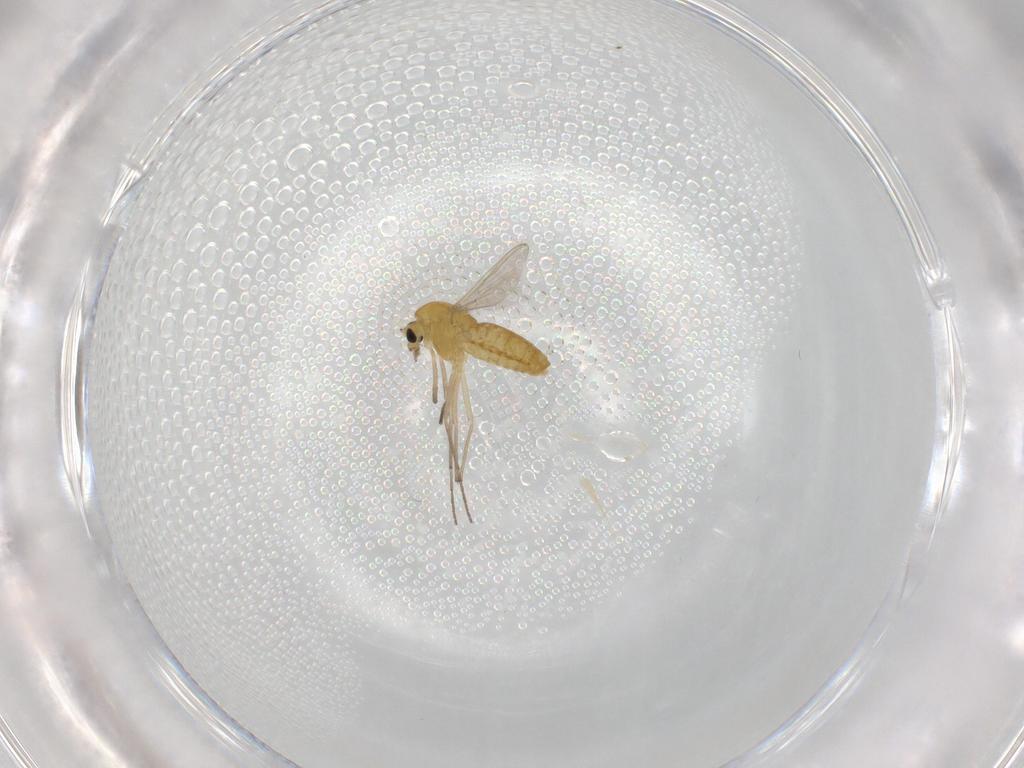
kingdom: Animalia
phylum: Arthropoda
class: Insecta
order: Diptera
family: Chironomidae
